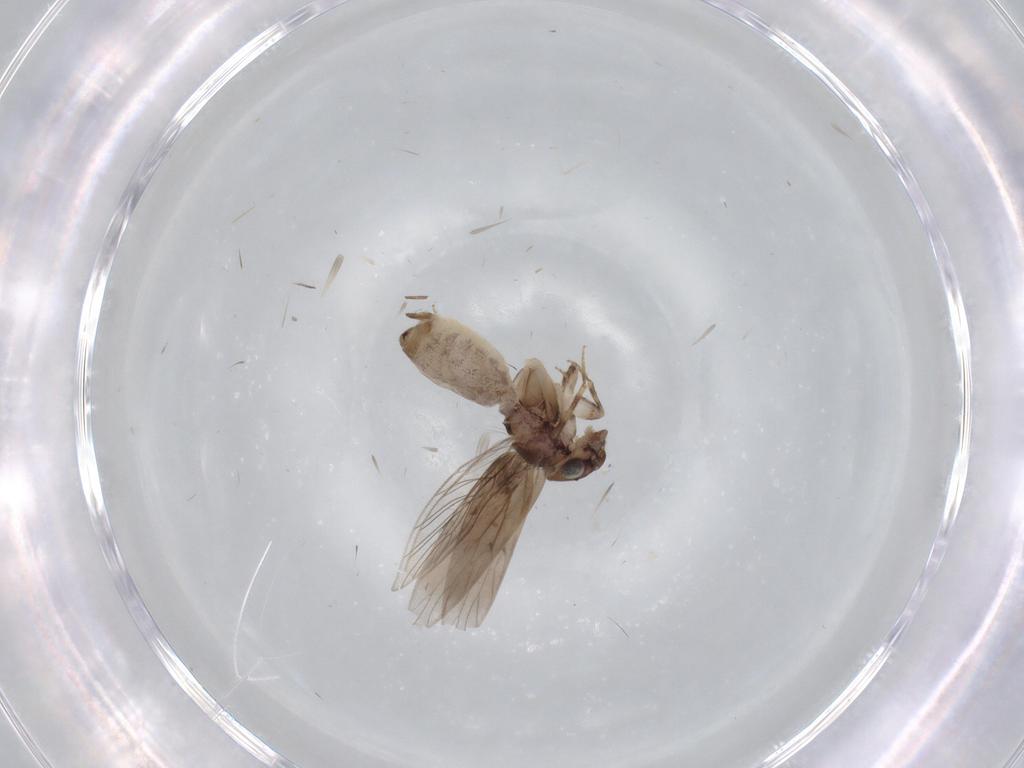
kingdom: Animalia
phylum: Arthropoda
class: Insecta
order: Psocodea
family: Lepidopsocidae
